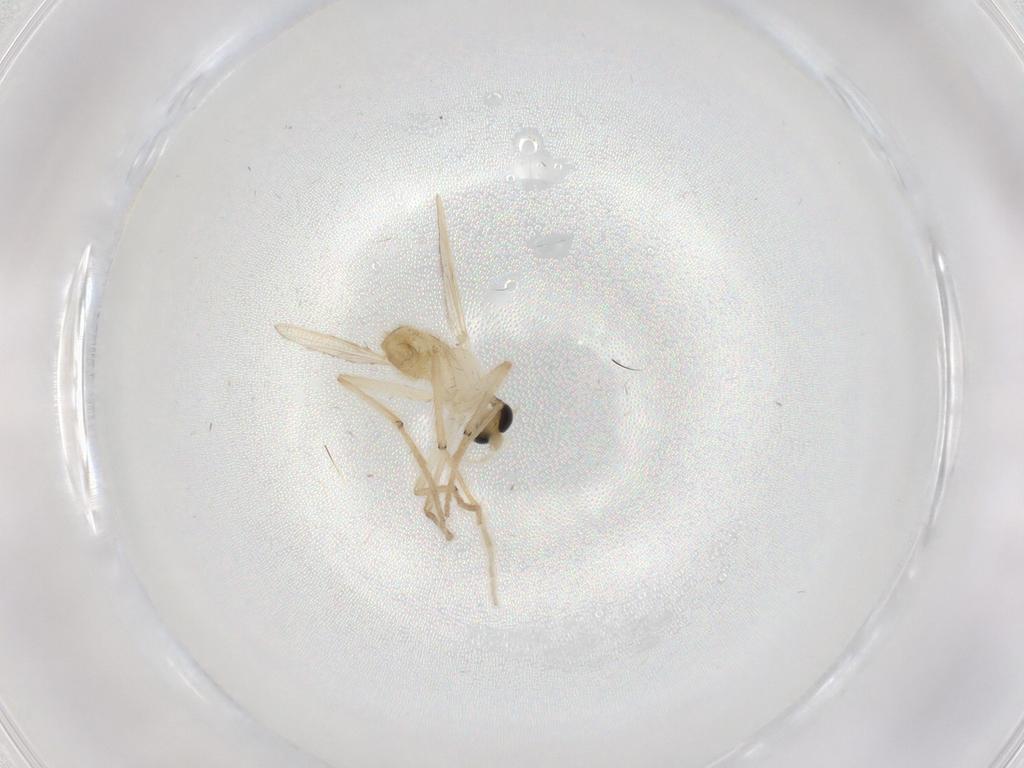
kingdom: Animalia
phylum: Arthropoda
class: Insecta
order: Diptera
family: Chironomidae
